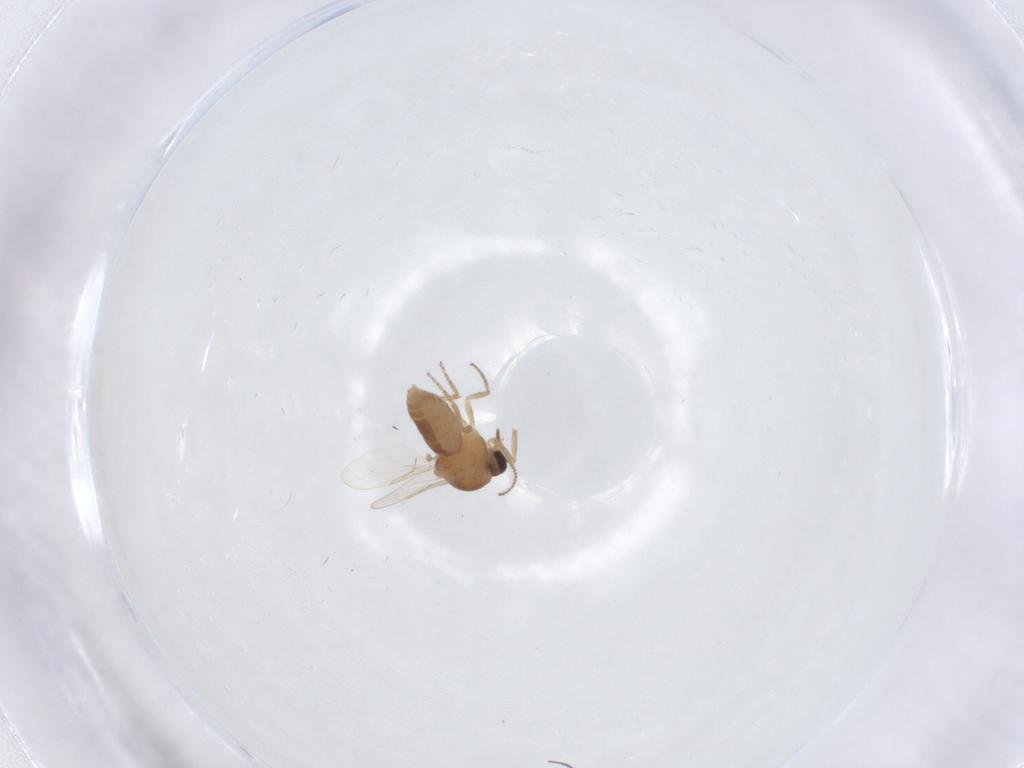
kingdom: Animalia
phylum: Arthropoda
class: Insecta
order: Diptera
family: Ceratopogonidae
